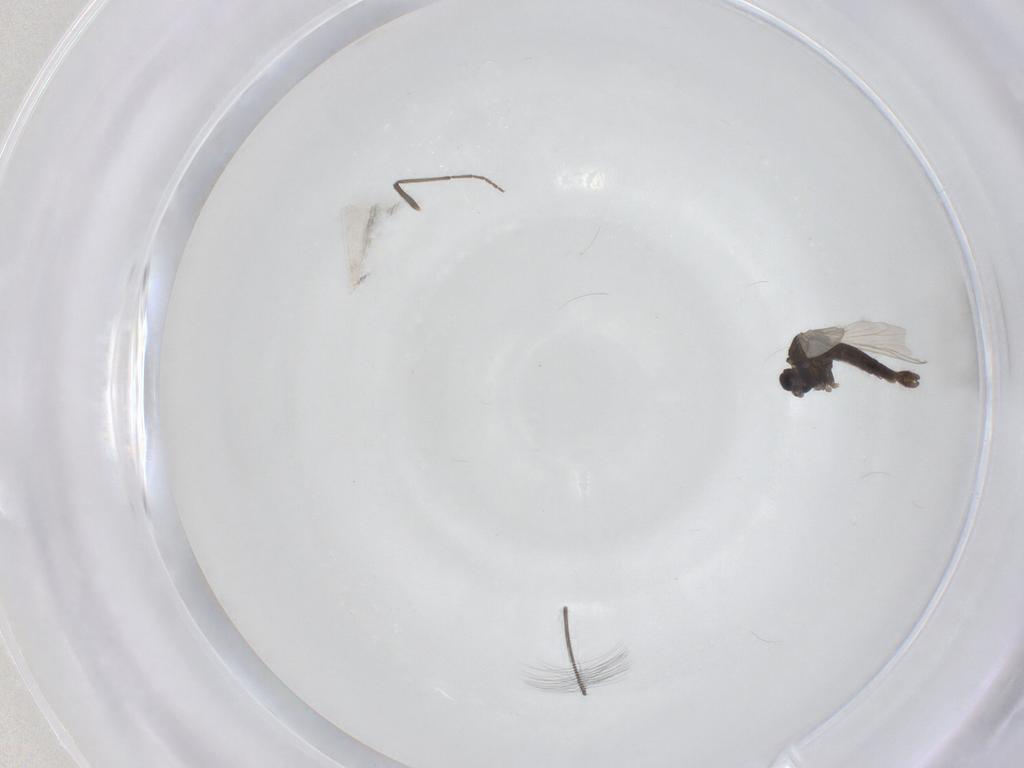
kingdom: Animalia
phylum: Arthropoda
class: Insecta
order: Diptera
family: Chironomidae
